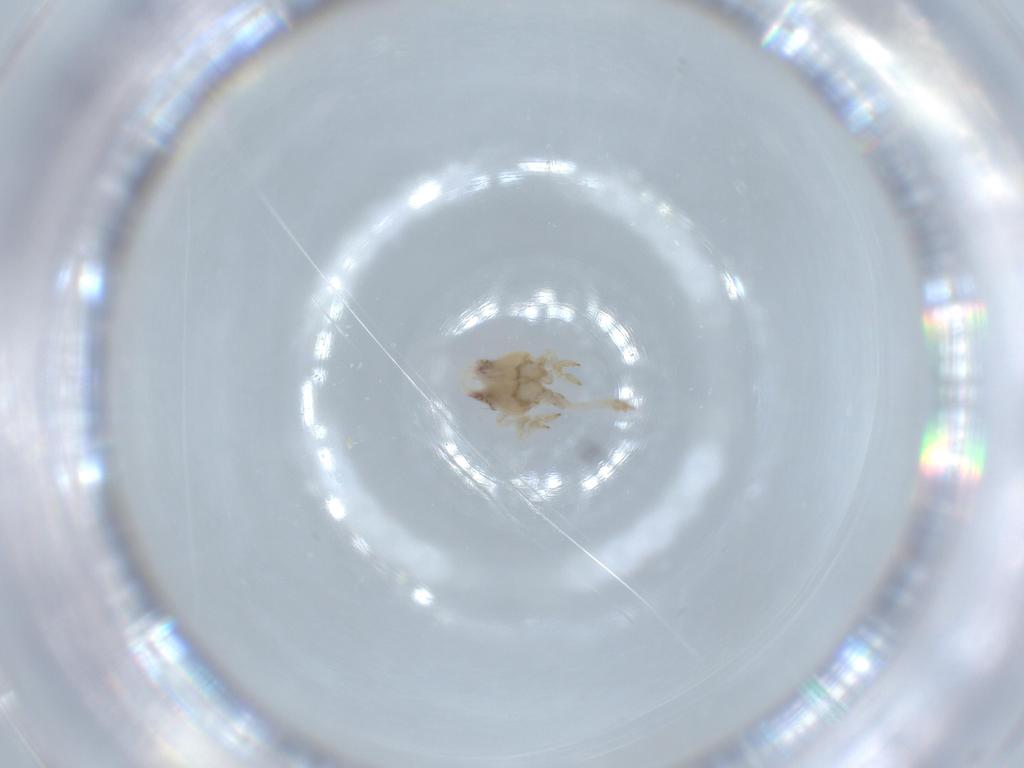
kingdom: Animalia
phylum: Arthropoda
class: Insecta
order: Hemiptera
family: Acanaloniidae
